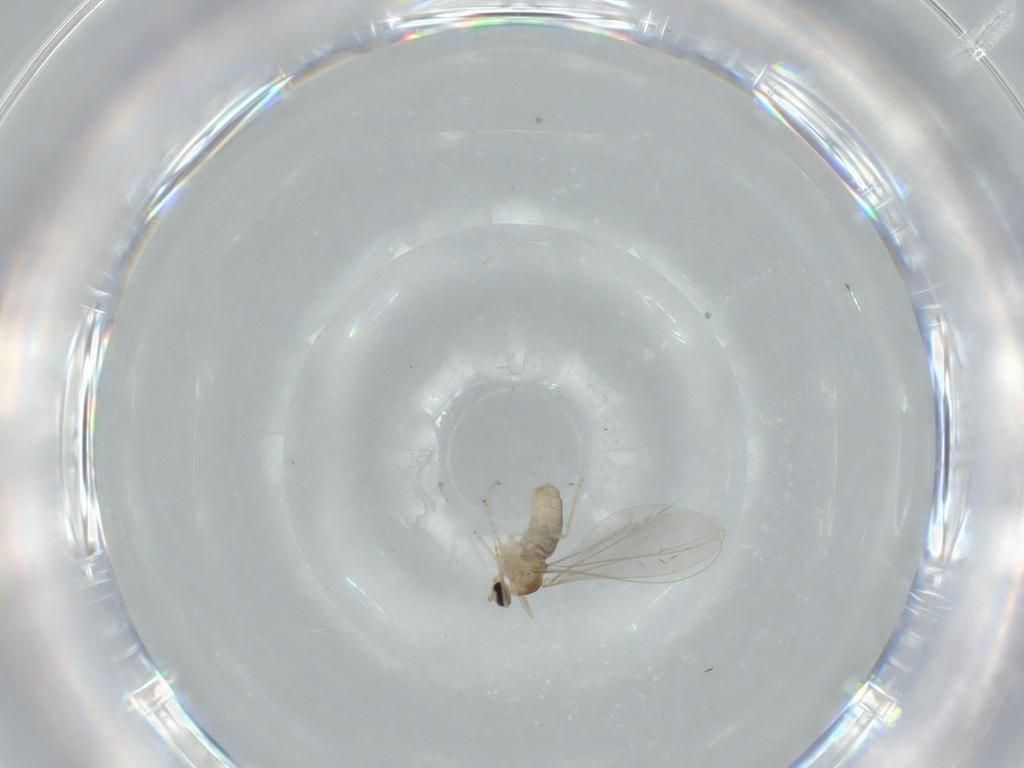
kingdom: Animalia
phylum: Arthropoda
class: Insecta
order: Diptera
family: Cecidomyiidae
